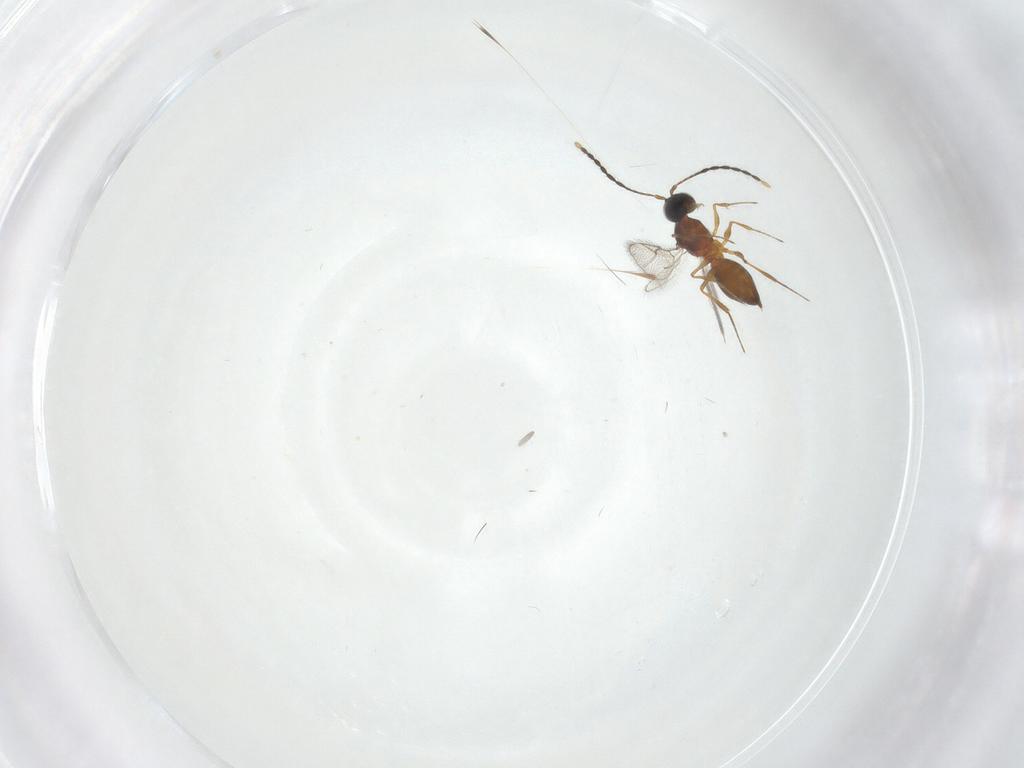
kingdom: Animalia
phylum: Arthropoda
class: Insecta
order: Hymenoptera
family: Figitidae
